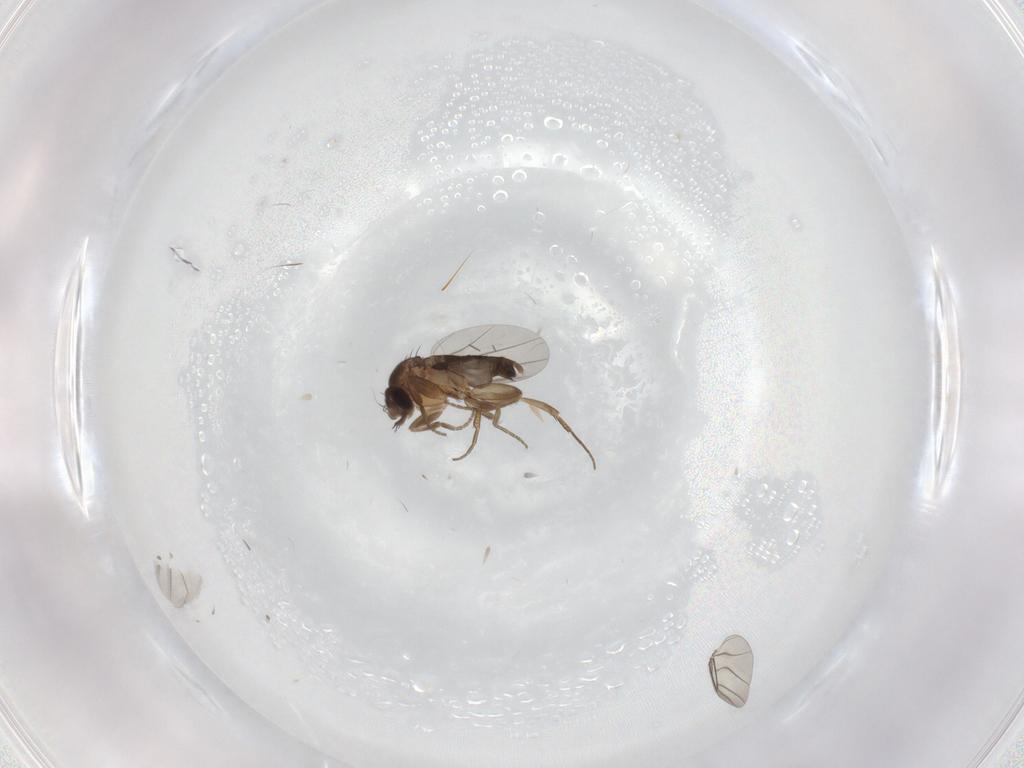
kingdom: Animalia
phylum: Arthropoda
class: Insecta
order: Diptera
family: Phoridae
